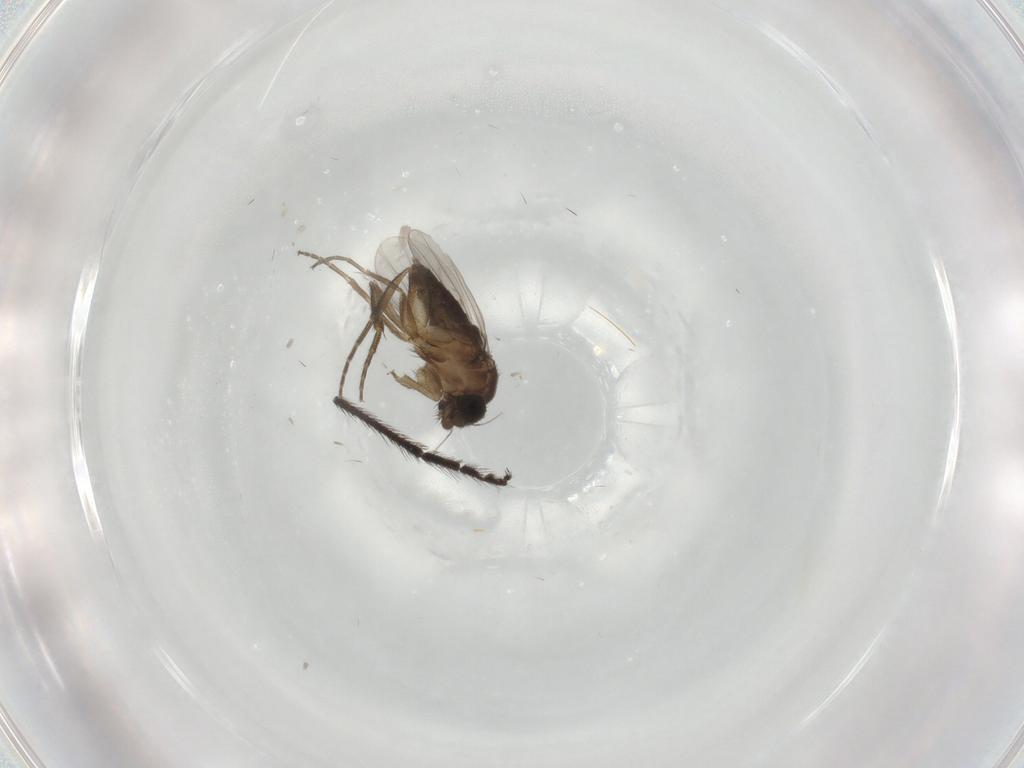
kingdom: Animalia
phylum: Arthropoda
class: Insecta
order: Diptera
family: Phoridae
